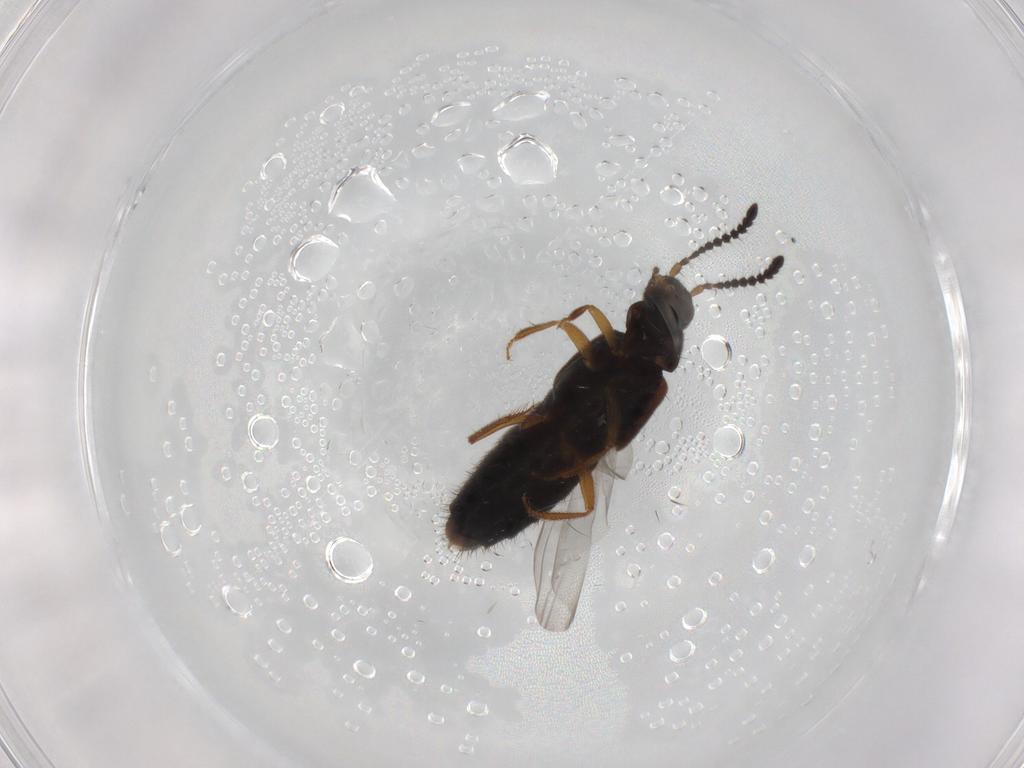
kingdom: Animalia
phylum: Arthropoda
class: Insecta
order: Coleoptera
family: Staphylinidae
